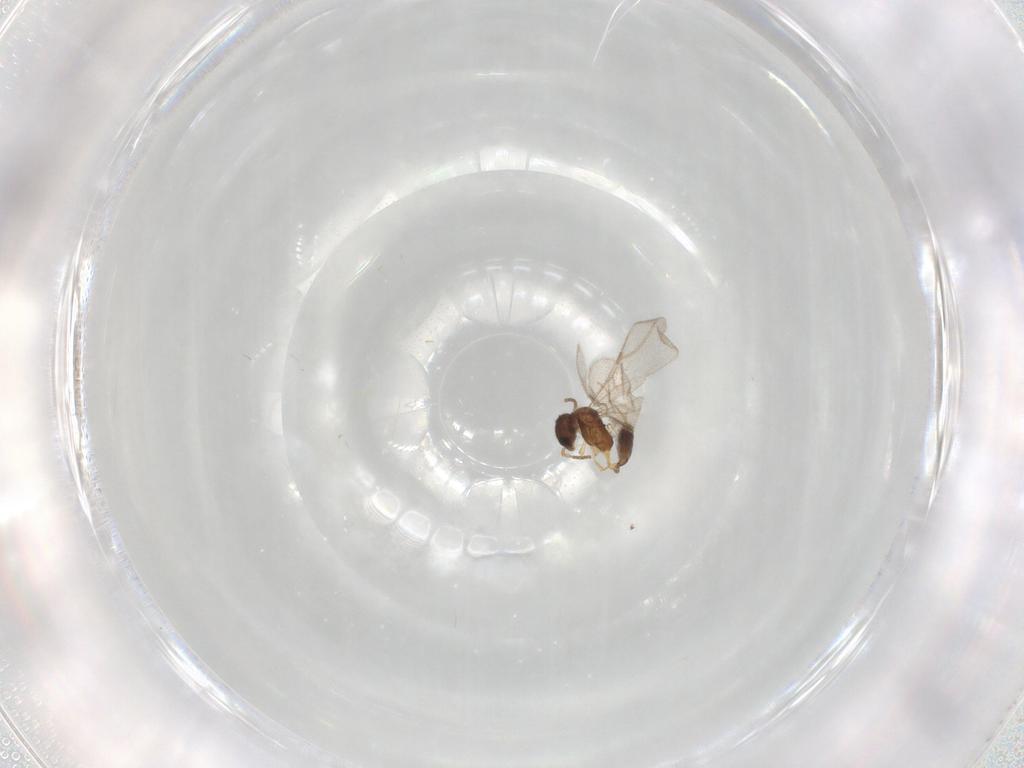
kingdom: Animalia
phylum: Arthropoda
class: Insecta
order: Hymenoptera
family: Bethylidae
